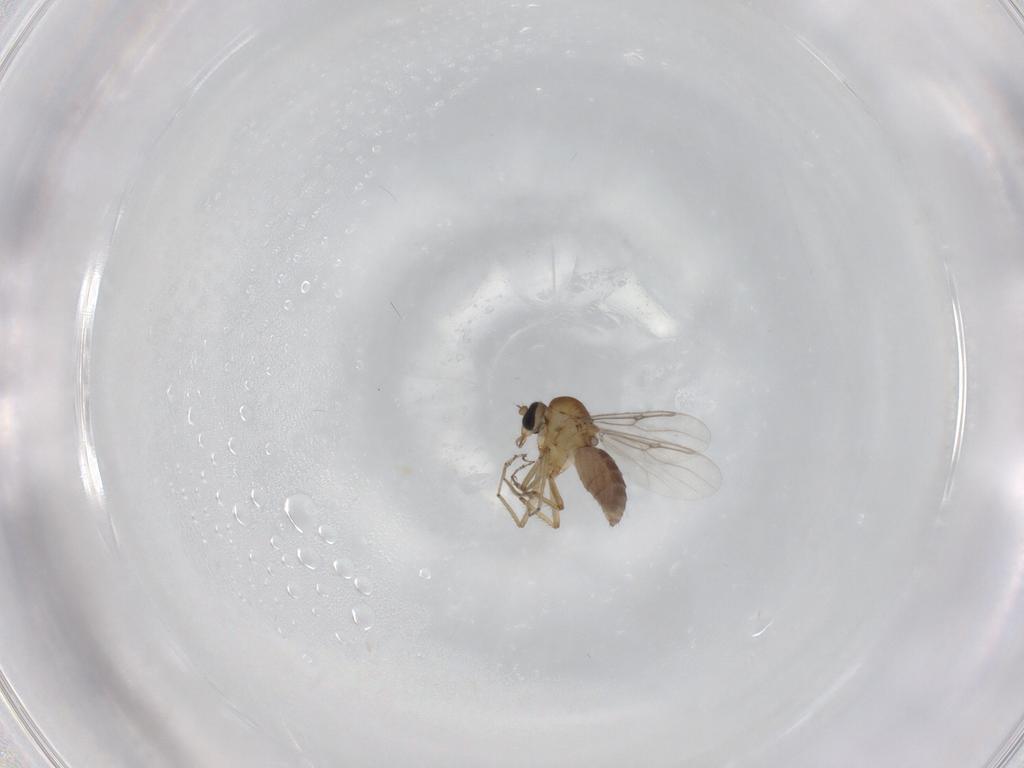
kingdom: Animalia
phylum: Arthropoda
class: Insecta
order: Diptera
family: Ceratopogonidae
